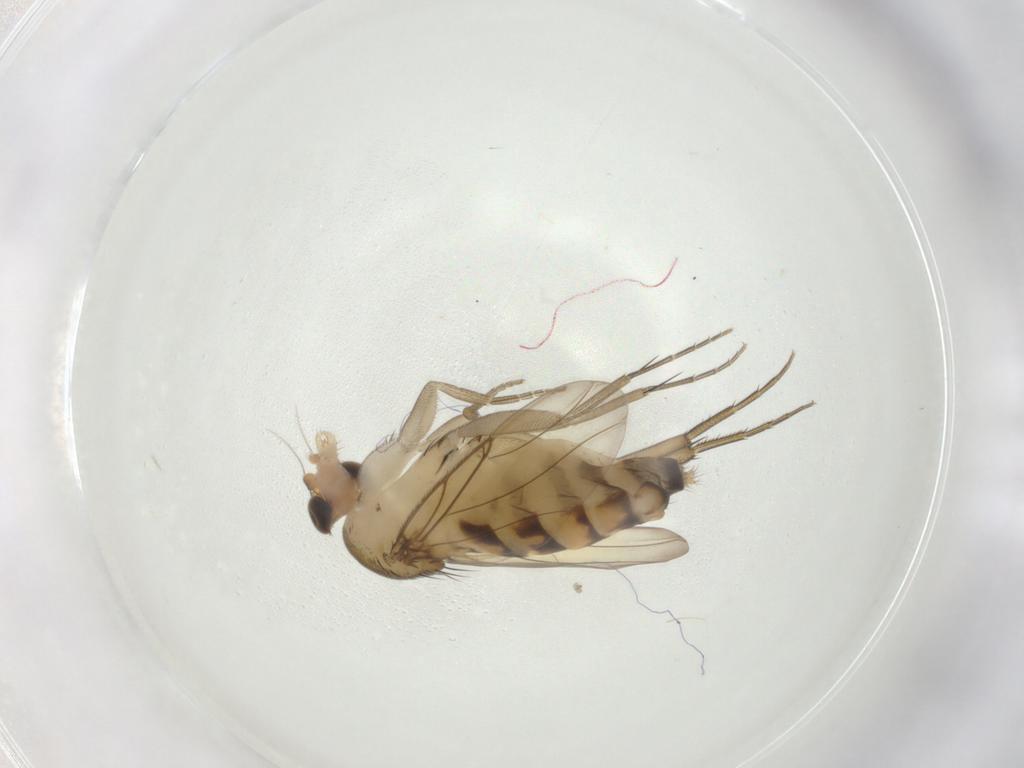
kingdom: Animalia
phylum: Arthropoda
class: Insecta
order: Diptera
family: Phoridae
